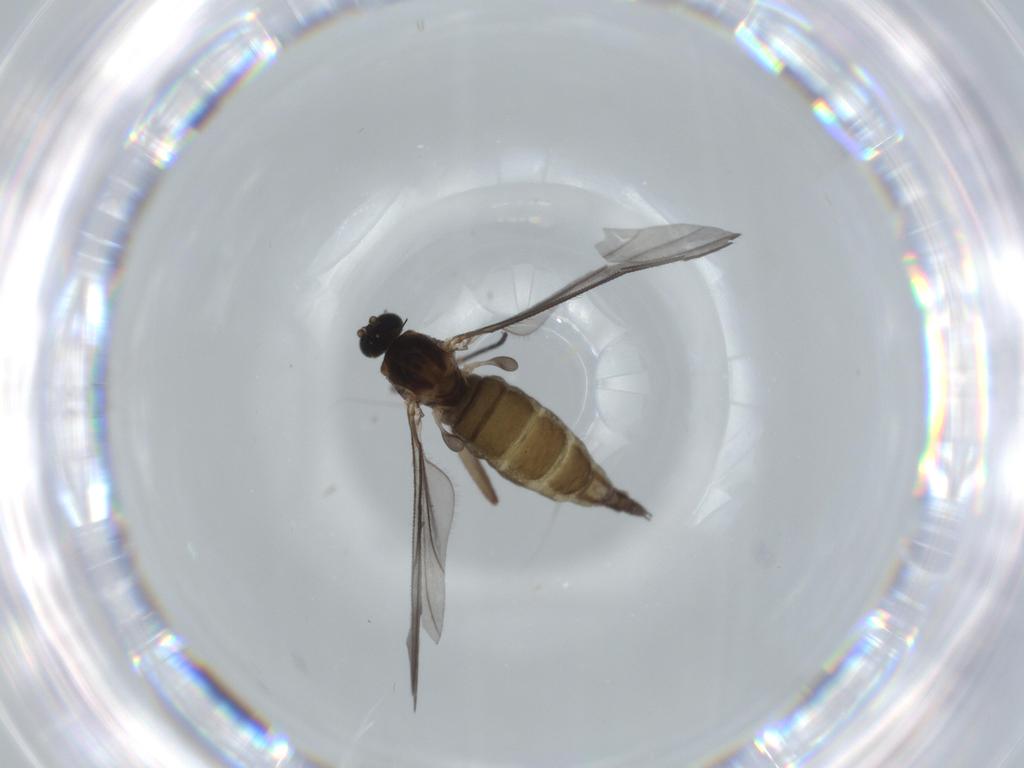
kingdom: Animalia
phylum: Arthropoda
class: Insecta
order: Diptera
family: Sciaridae
